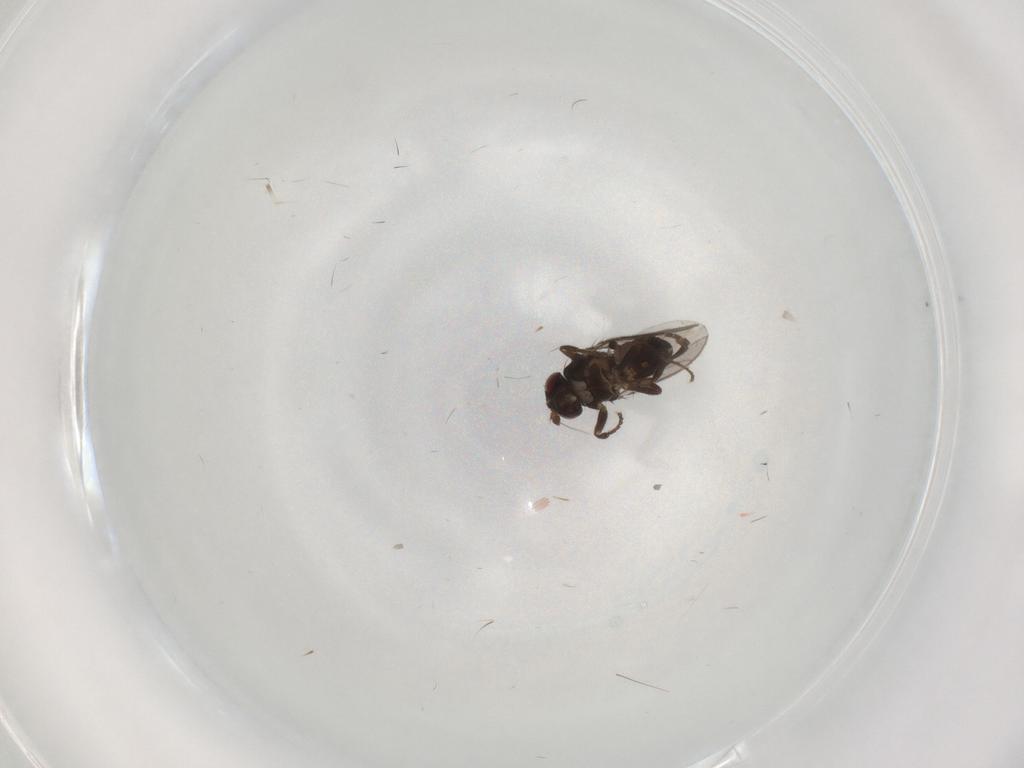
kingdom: Animalia
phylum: Arthropoda
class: Insecta
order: Diptera
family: Sphaeroceridae
